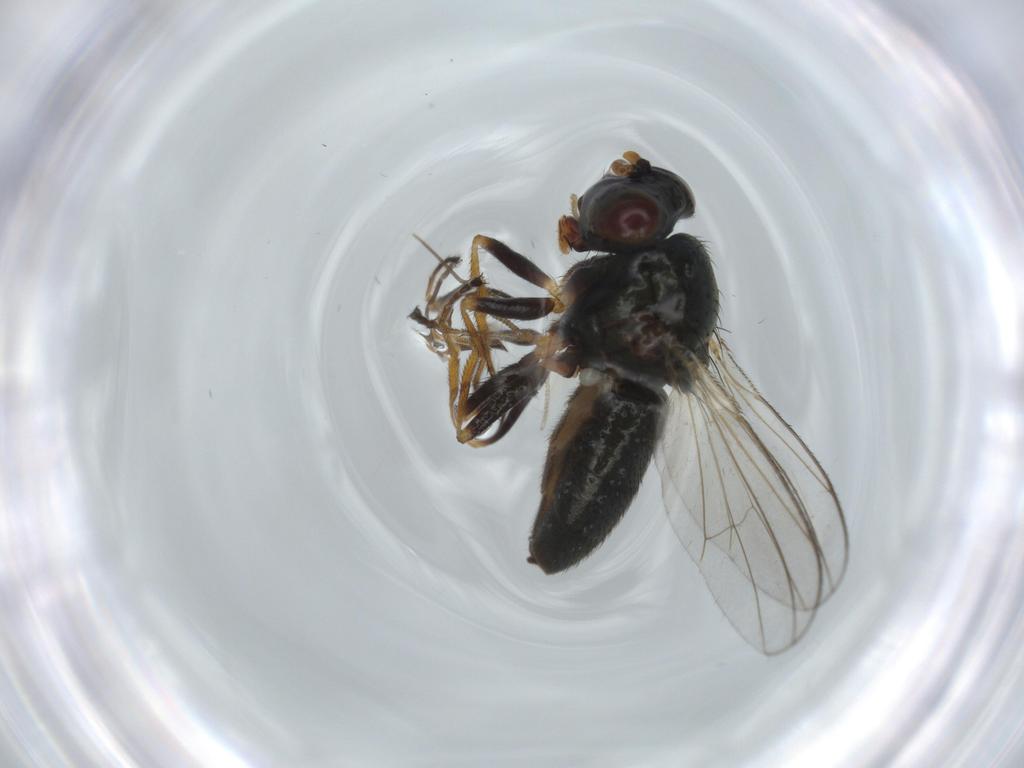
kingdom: Animalia
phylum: Arthropoda
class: Insecta
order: Diptera
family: Ephydridae
